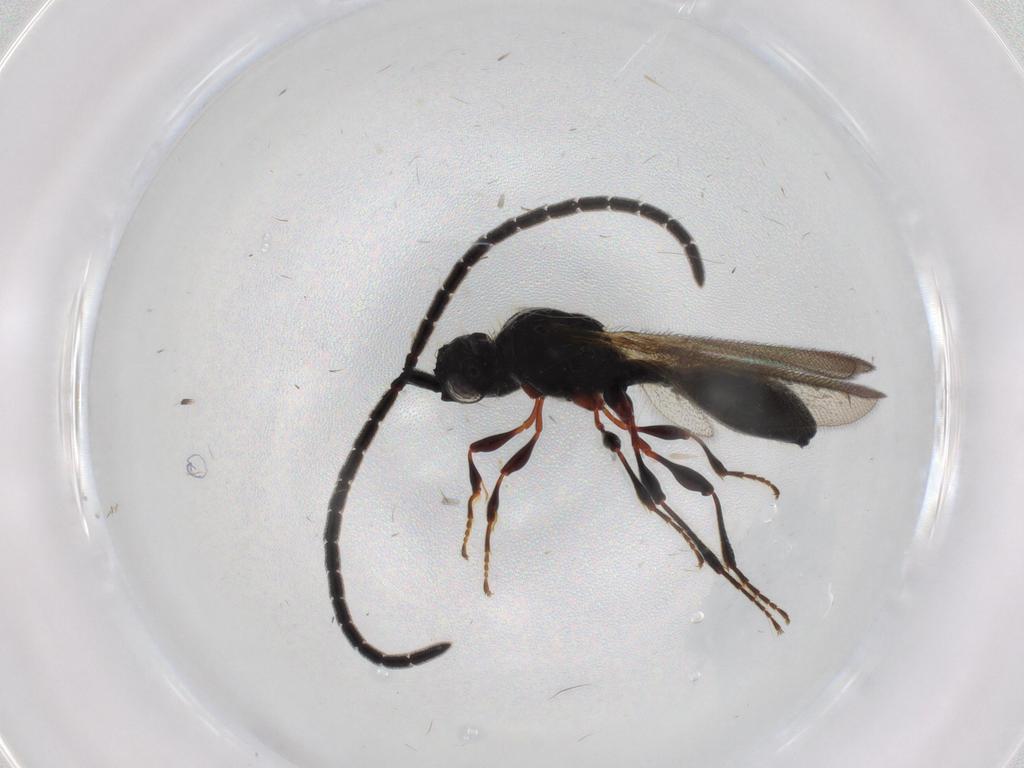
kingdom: Animalia
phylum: Arthropoda
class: Insecta
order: Hymenoptera
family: Diapriidae
